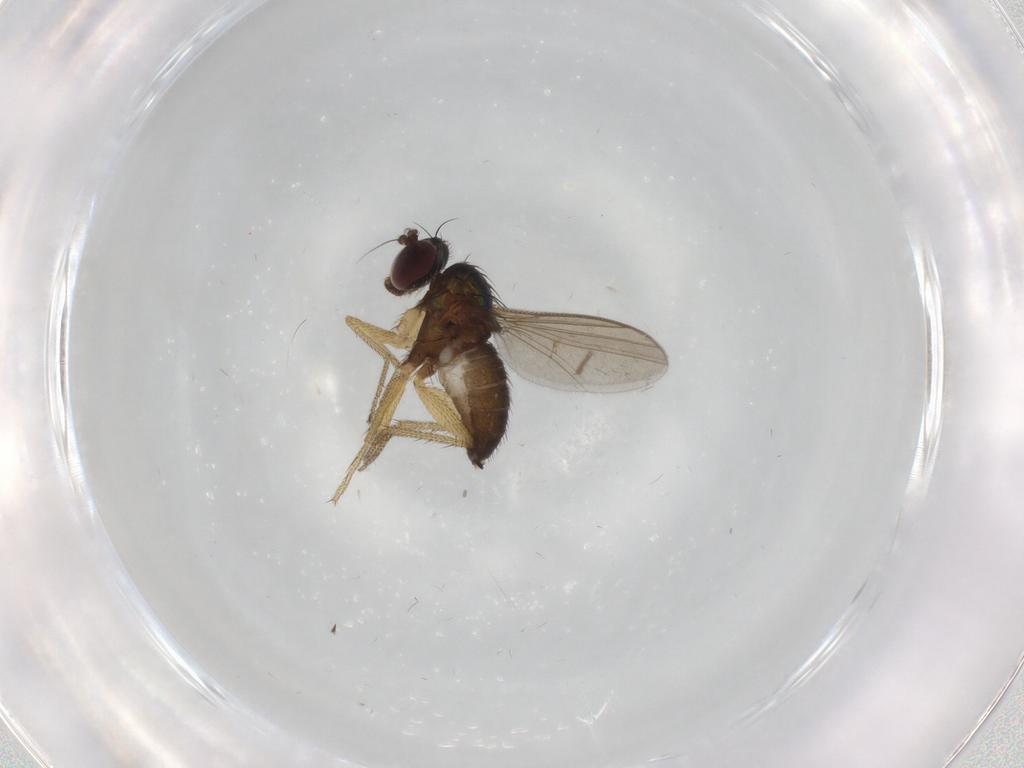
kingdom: Animalia
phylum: Arthropoda
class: Insecta
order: Diptera
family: Dolichopodidae
